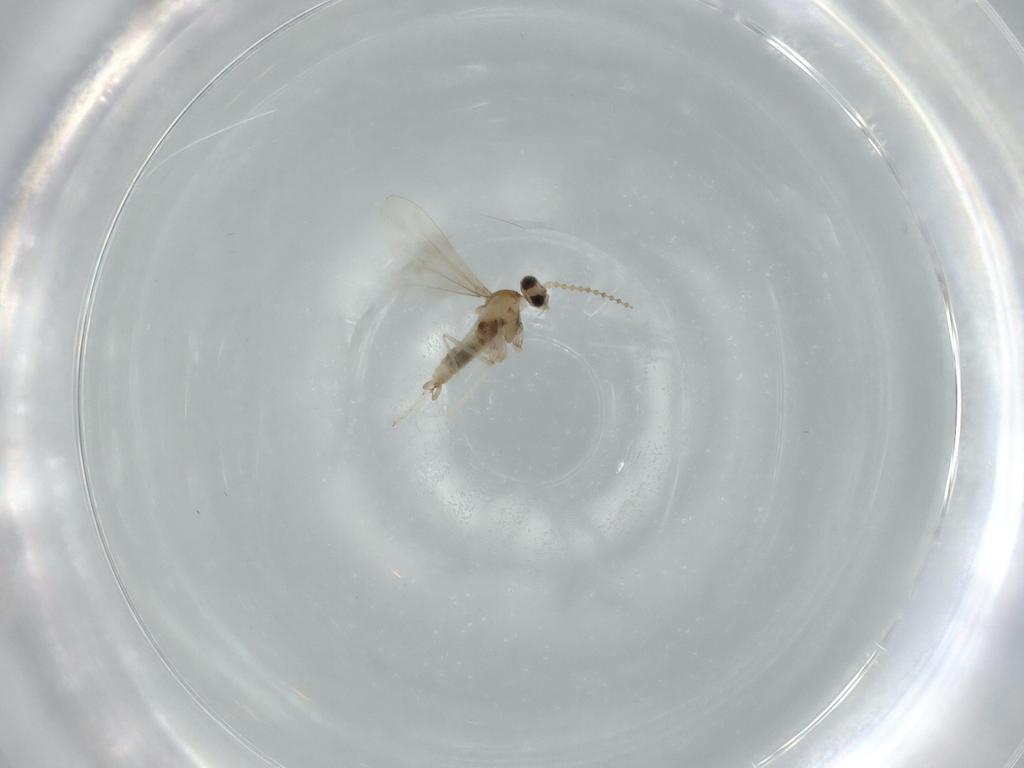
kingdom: Animalia
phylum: Arthropoda
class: Insecta
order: Diptera
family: Cecidomyiidae
